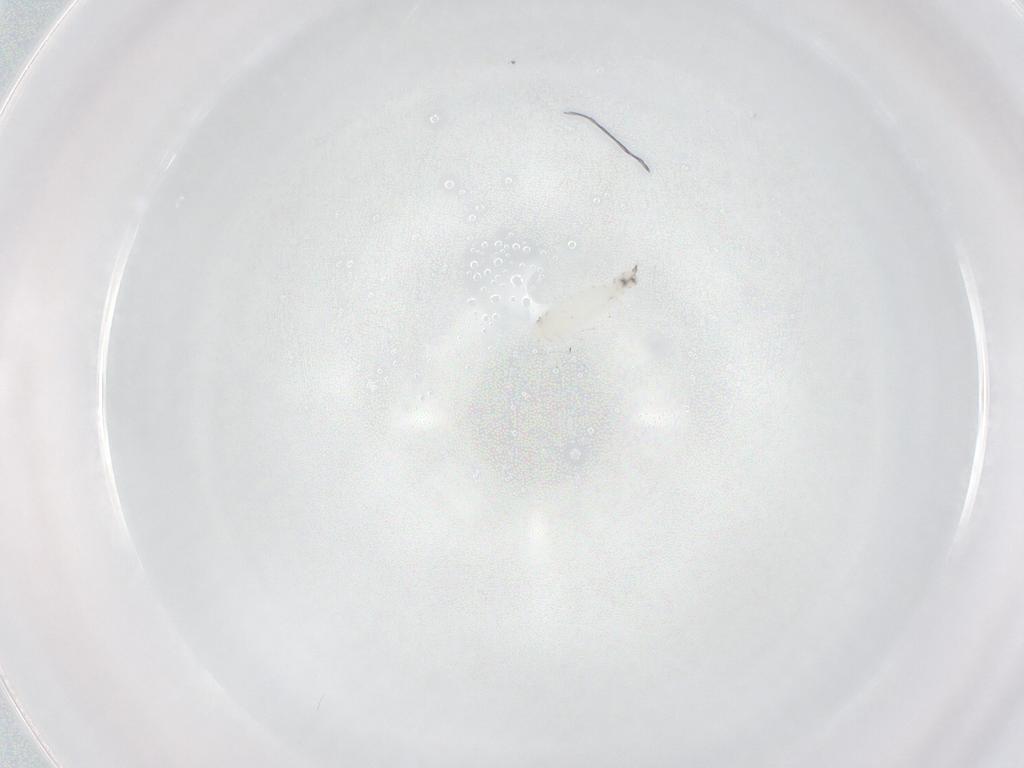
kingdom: Animalia
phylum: Arthropoda
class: Insecta
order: Diptera
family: Sarcophagidae
